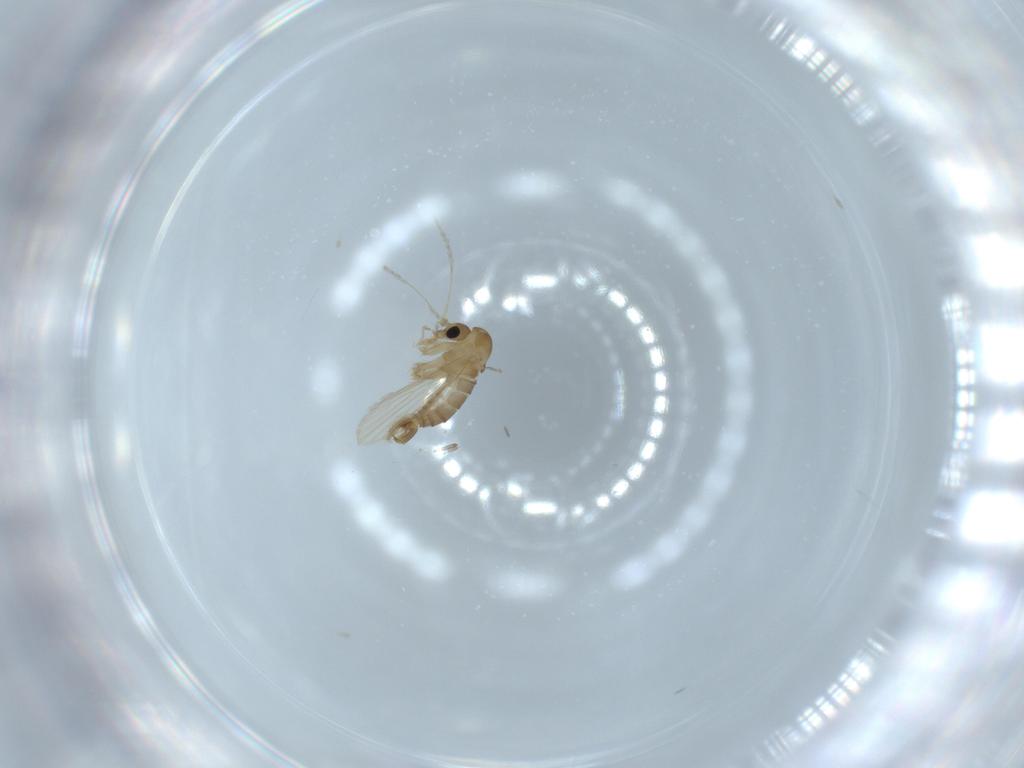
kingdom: Animalia
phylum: Arthropoda
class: Insecta
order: Diptera
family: Psychodidae
